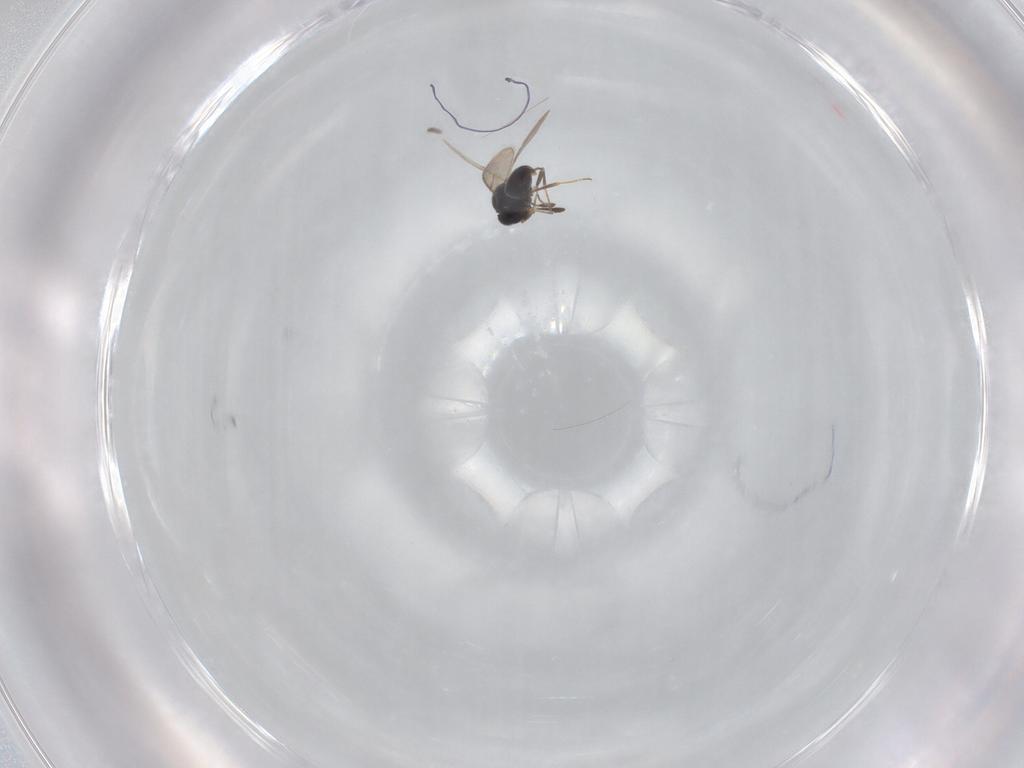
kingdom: Animalia
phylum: Arthropoda
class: Insecta
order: Hymenoptera
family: Scelionidae
